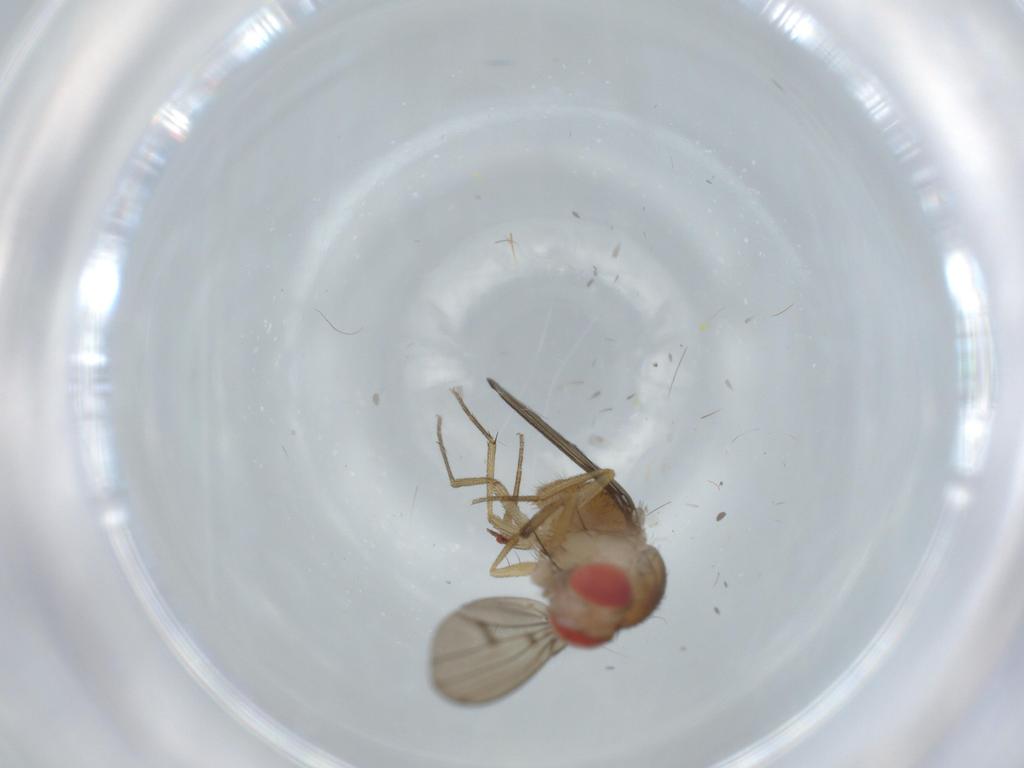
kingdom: Animalia
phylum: Arthropoda
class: Insecta
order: Diptera
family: Drosophilidae
